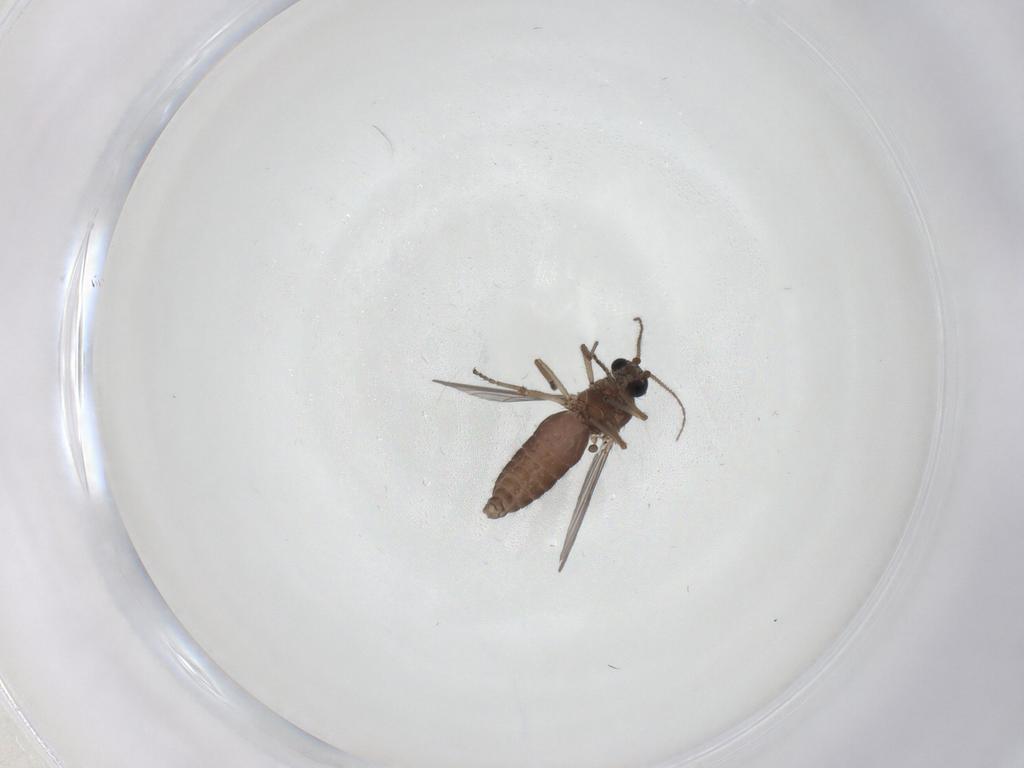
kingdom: Animalia
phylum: Arthropoda
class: Insecta
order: Diptera
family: Ceratopogonidae
